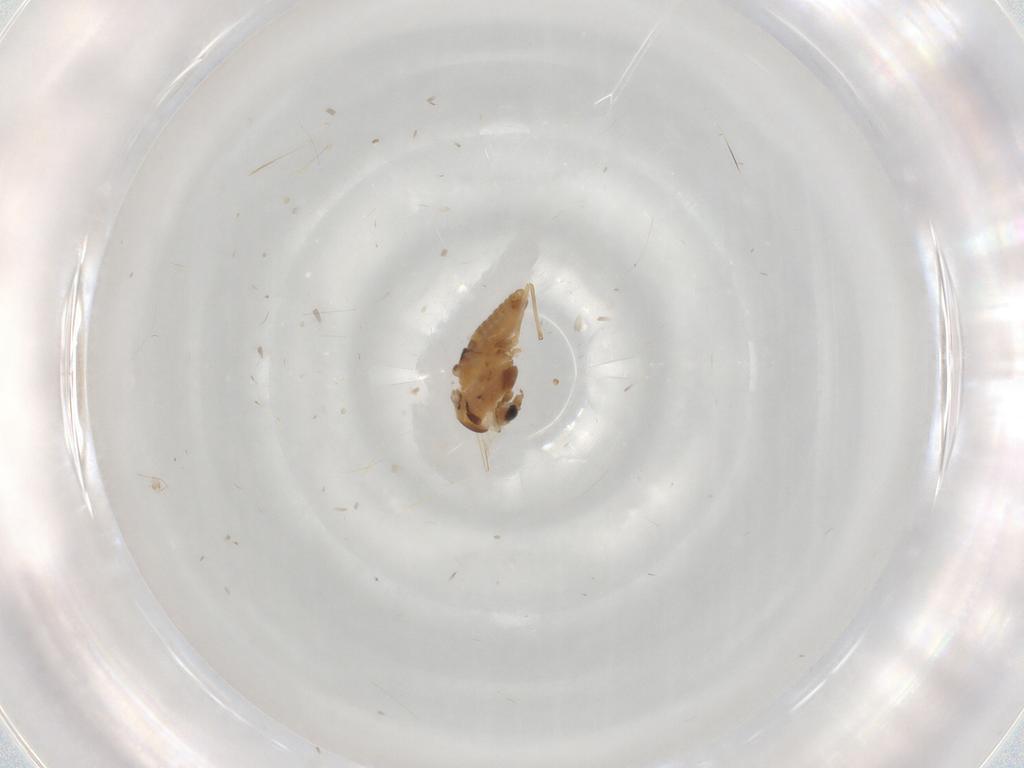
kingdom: Animalia
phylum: Arthropoda
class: Insecta
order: Diptera
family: Chironomidae
